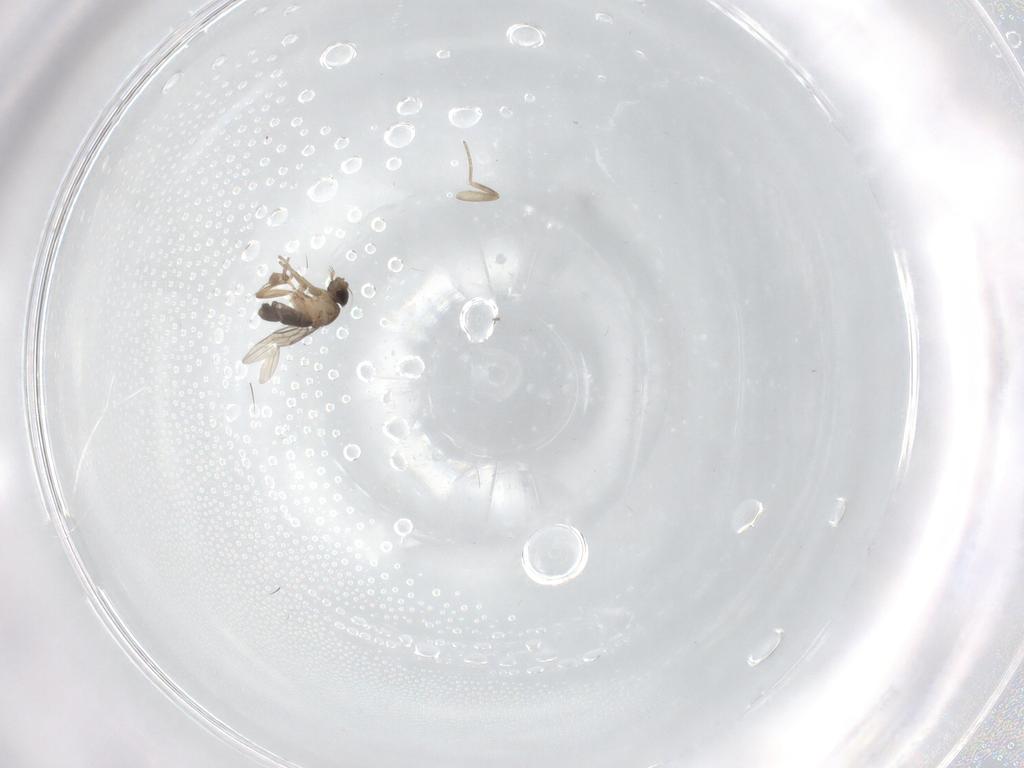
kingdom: Animalia
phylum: Arthropoda
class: Insecta
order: Diptera
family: Phoridae
